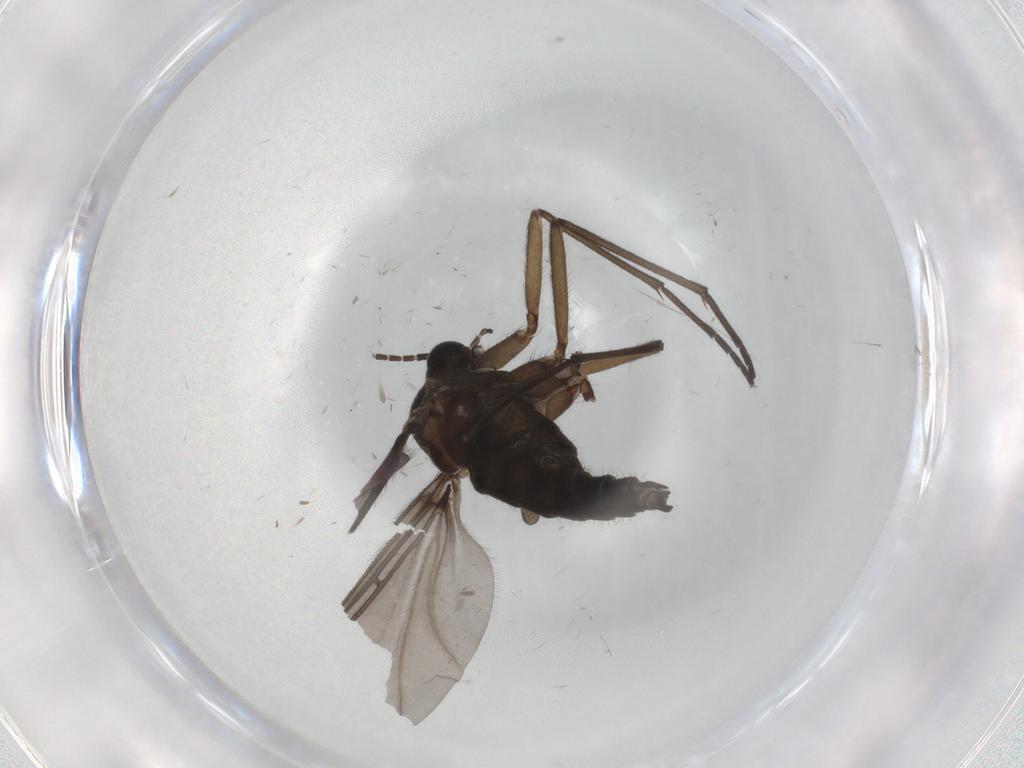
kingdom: Animalia
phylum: Arthropoda
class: Insecta
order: Diptera
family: Sciaridae
